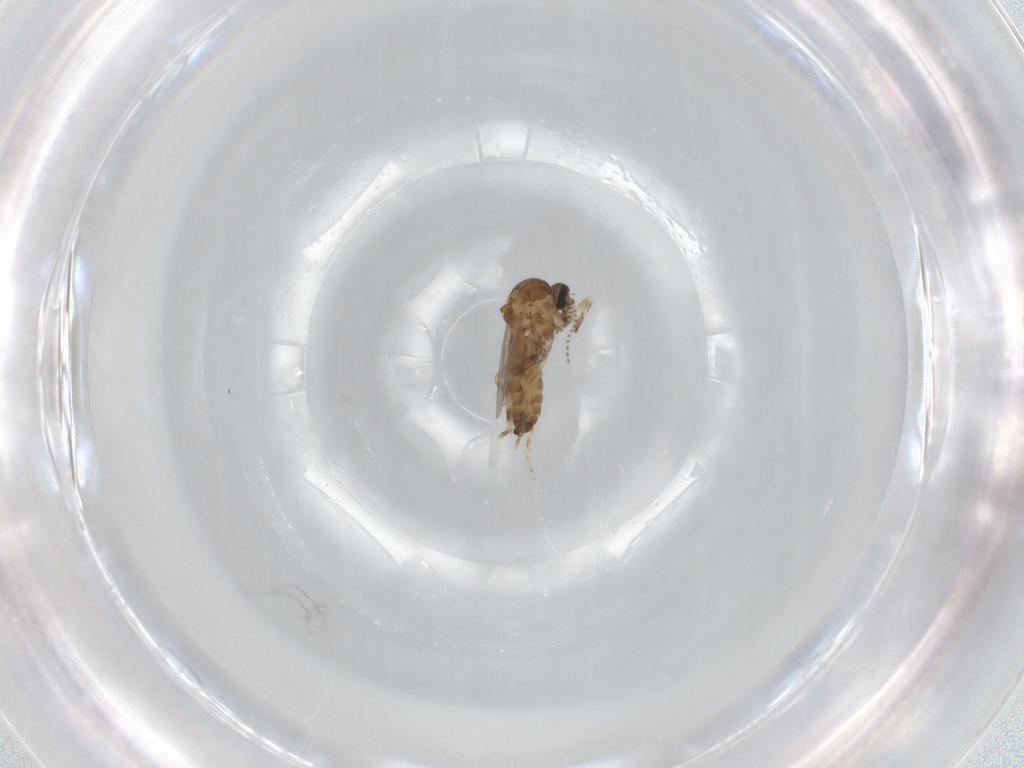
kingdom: Animalia
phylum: Arthropoda
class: Insecta
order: Diptera
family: Ceratopogonidae
